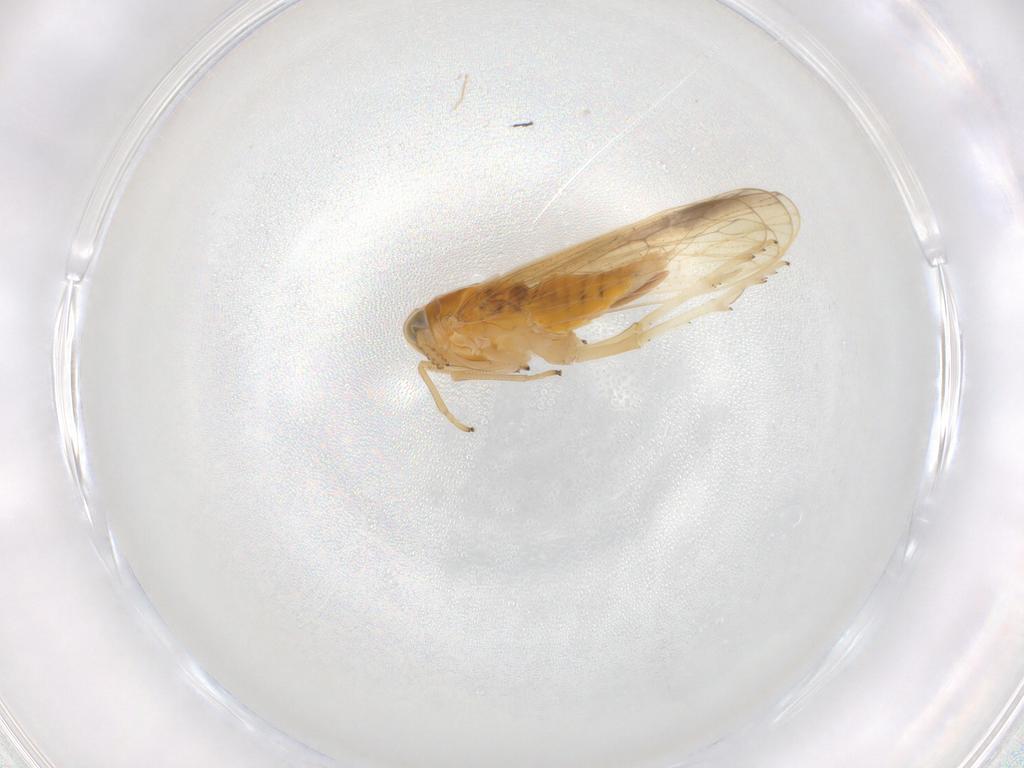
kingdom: Animalia
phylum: Arthropoda
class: Insecta
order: Hemiptera
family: Delphacidae
